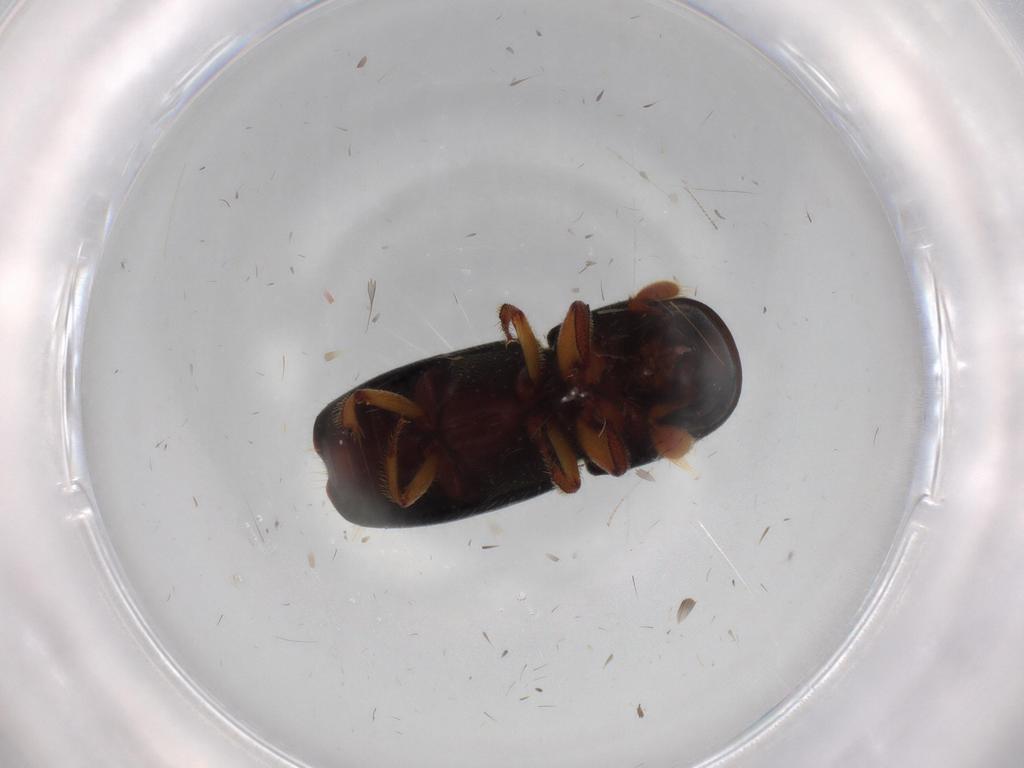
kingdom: Animalia
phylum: Arthropoda
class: Insecta
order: Coleoptera
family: Curculionidae
